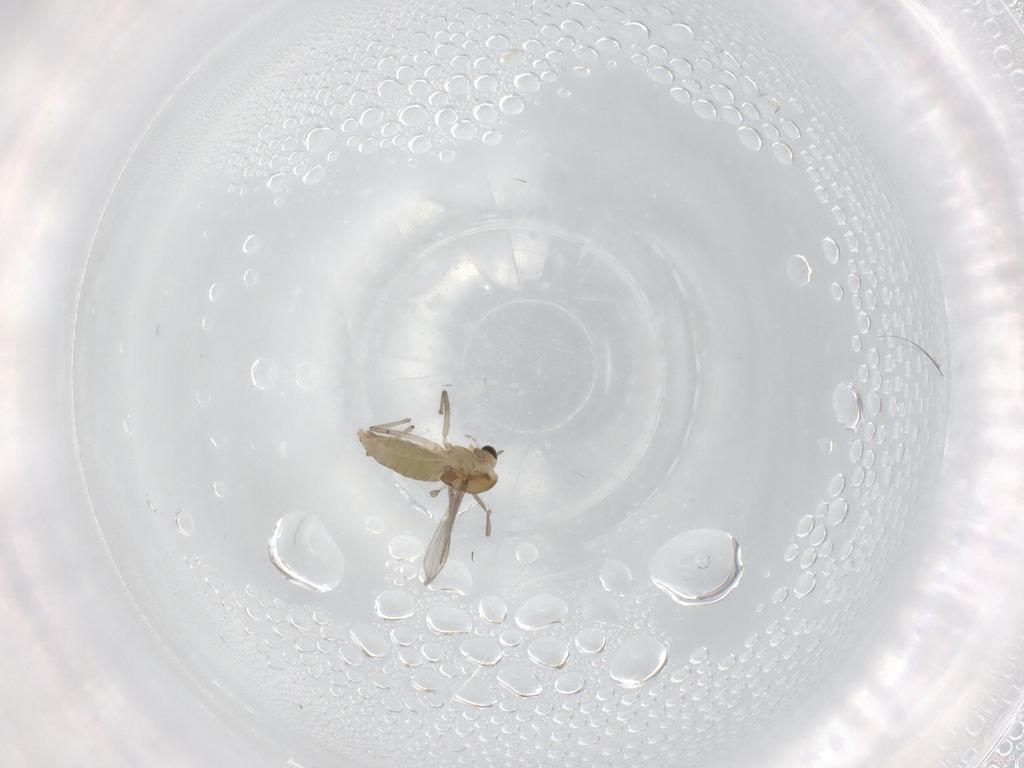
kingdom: Animalia
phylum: Arthropoda
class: Insecta
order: Diptera
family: Chironomidae
